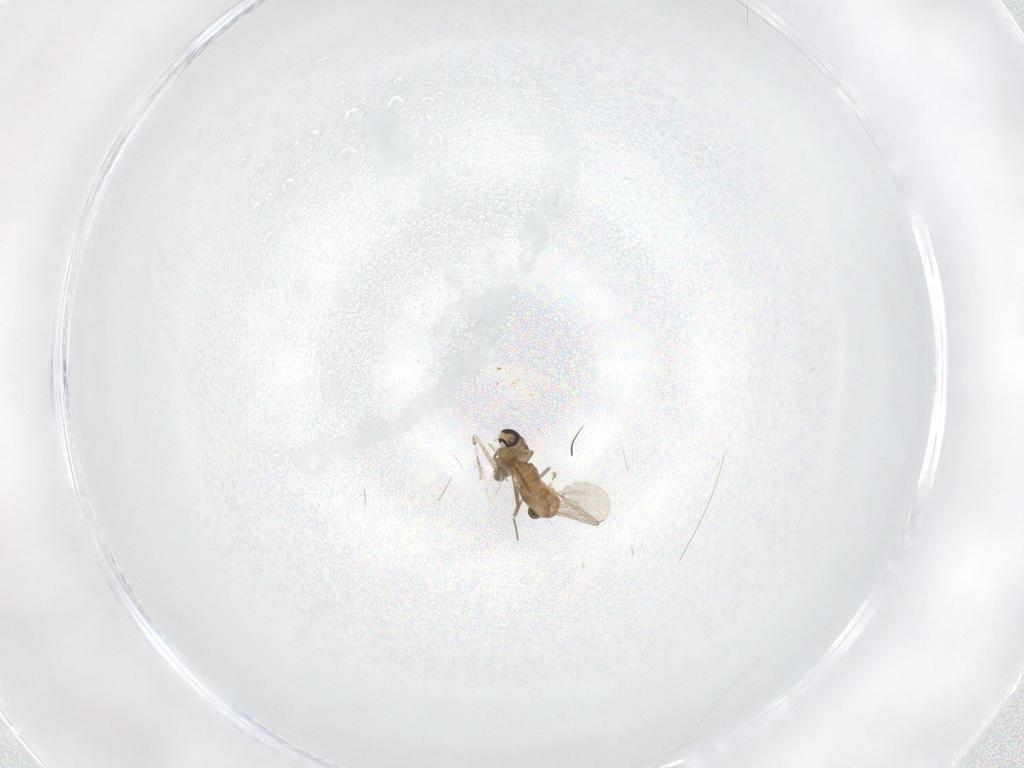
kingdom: Animalia
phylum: Arthropoda
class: Insecta
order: Diptera
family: Cecidomyiidae
